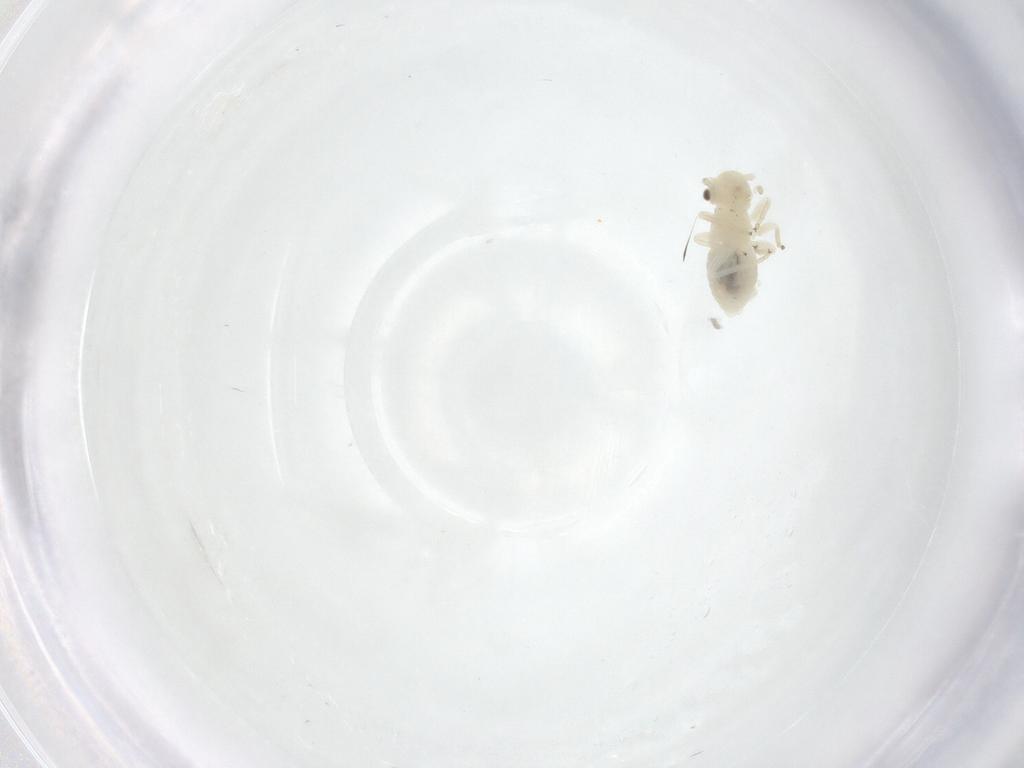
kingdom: Animalia
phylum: Arthropoda
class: Insecta
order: Psocodea
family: Caeciliusidae
